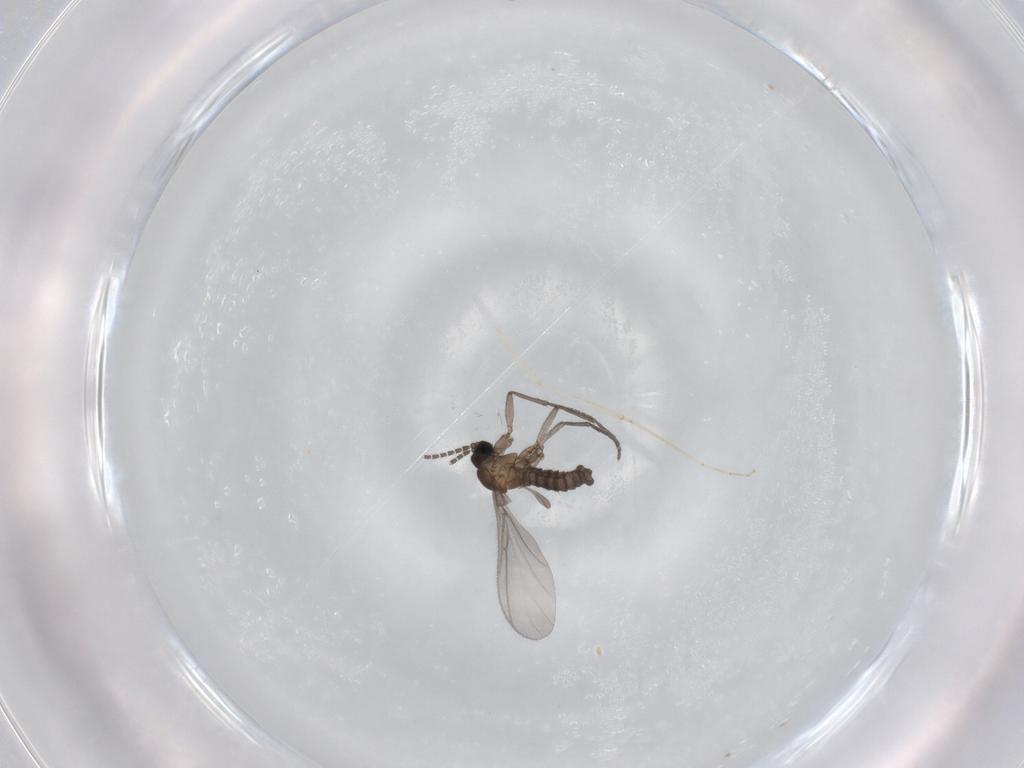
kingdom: Animalia
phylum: Arthropoda
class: Insecta
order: Diptera
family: Sciaridae
